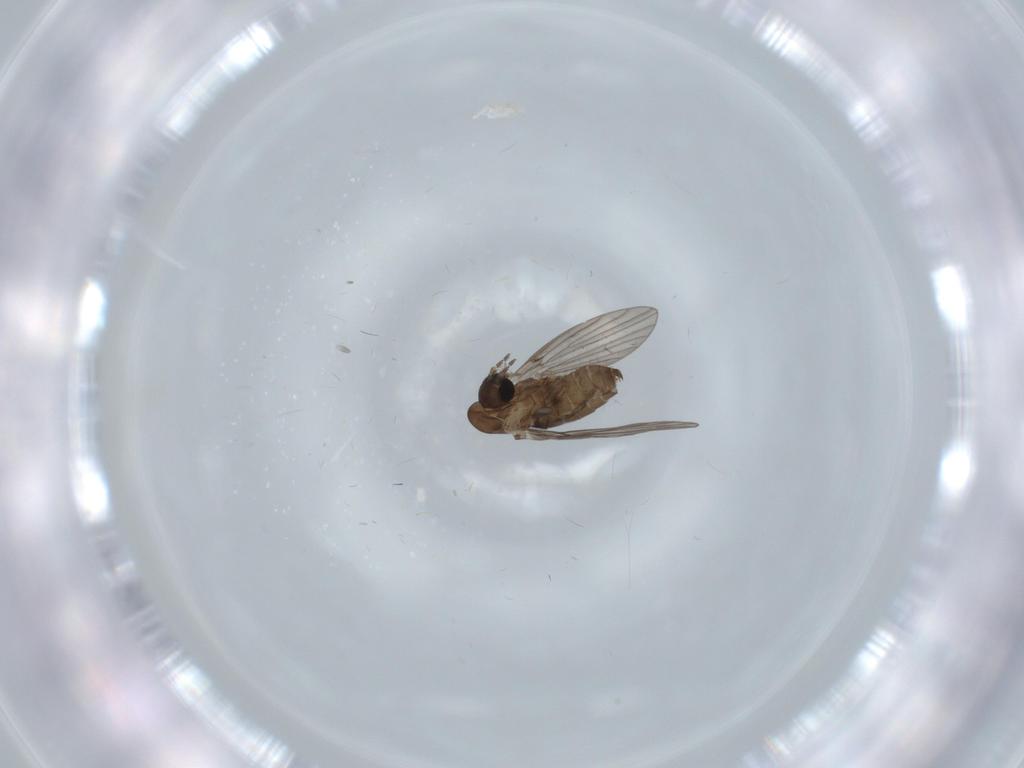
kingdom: Animalia
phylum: Arthropoda
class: Insecta
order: Diptera
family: Psychodidae
